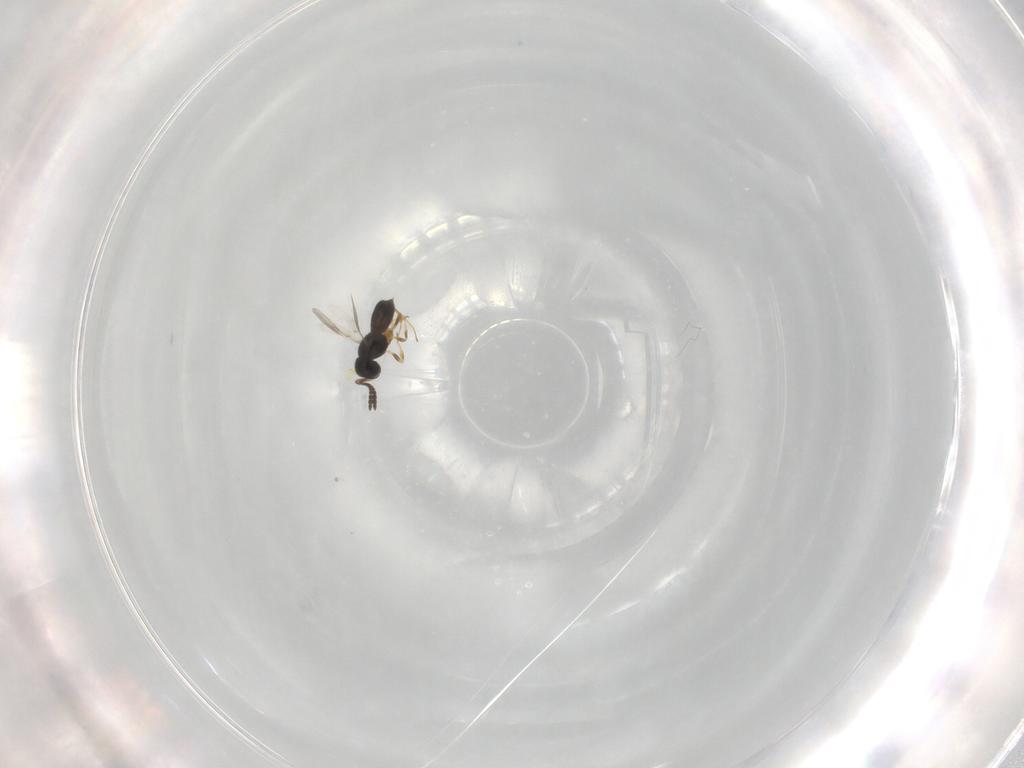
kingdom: Animalia
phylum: Arthropoda
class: Insecta
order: Hymenoptera
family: Scelionidae
